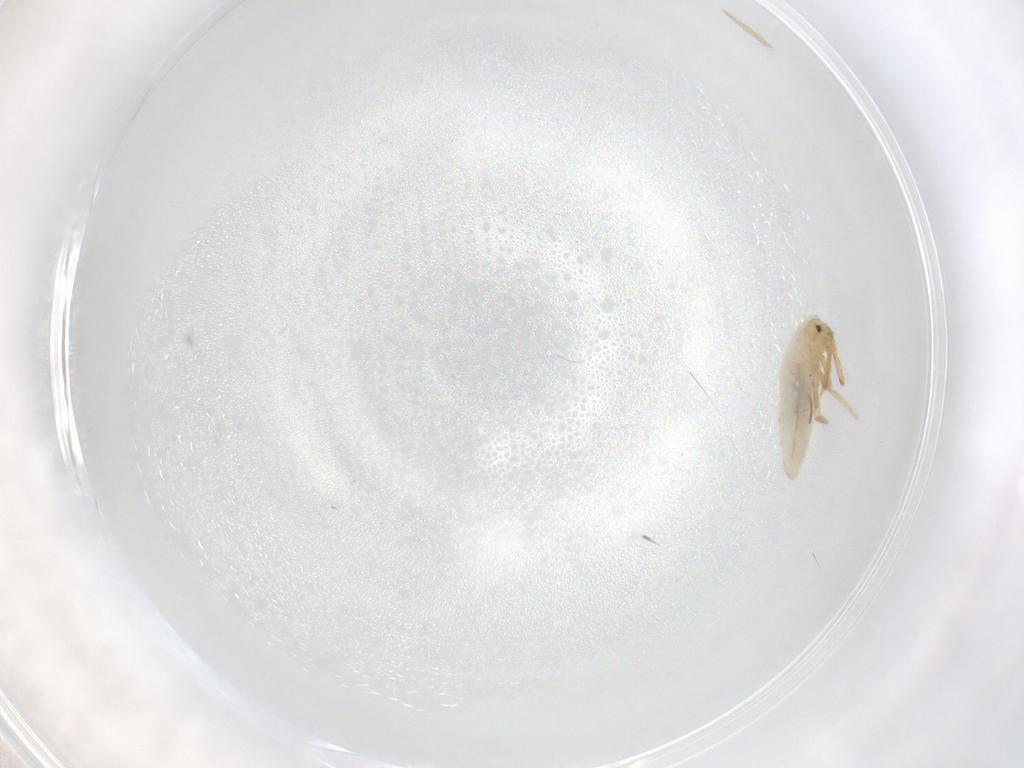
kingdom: Animalia
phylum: Arthropoda
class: Collembola
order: Entomobryomorpha
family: Entomobryidae
